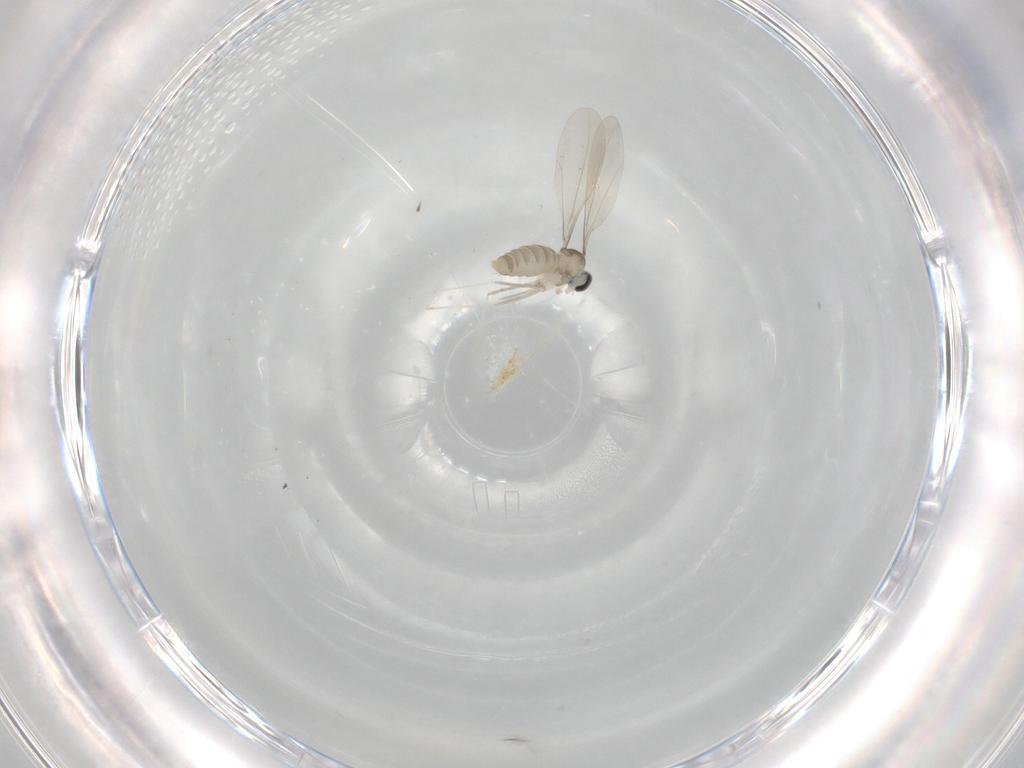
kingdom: Animalia
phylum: Arthropoda
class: Insecta
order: Diptera
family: Cecidomyiidae
